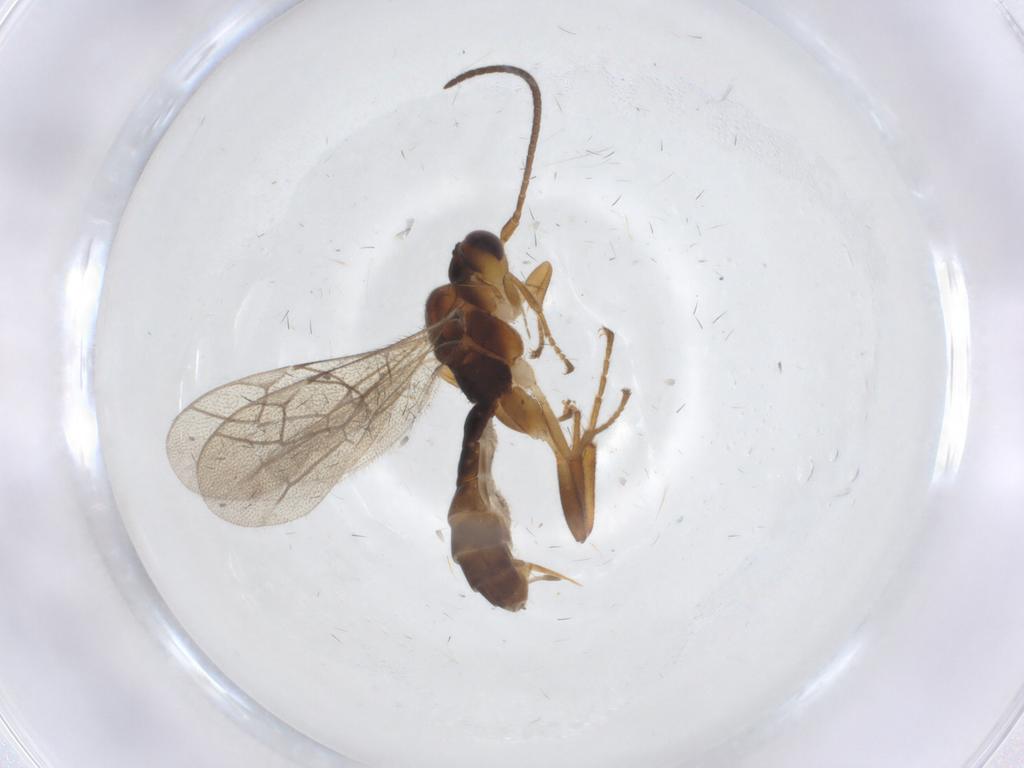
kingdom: Animalia
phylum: Arthropoda
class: Insecta
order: Hymenoptera
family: Ichneumonidae
